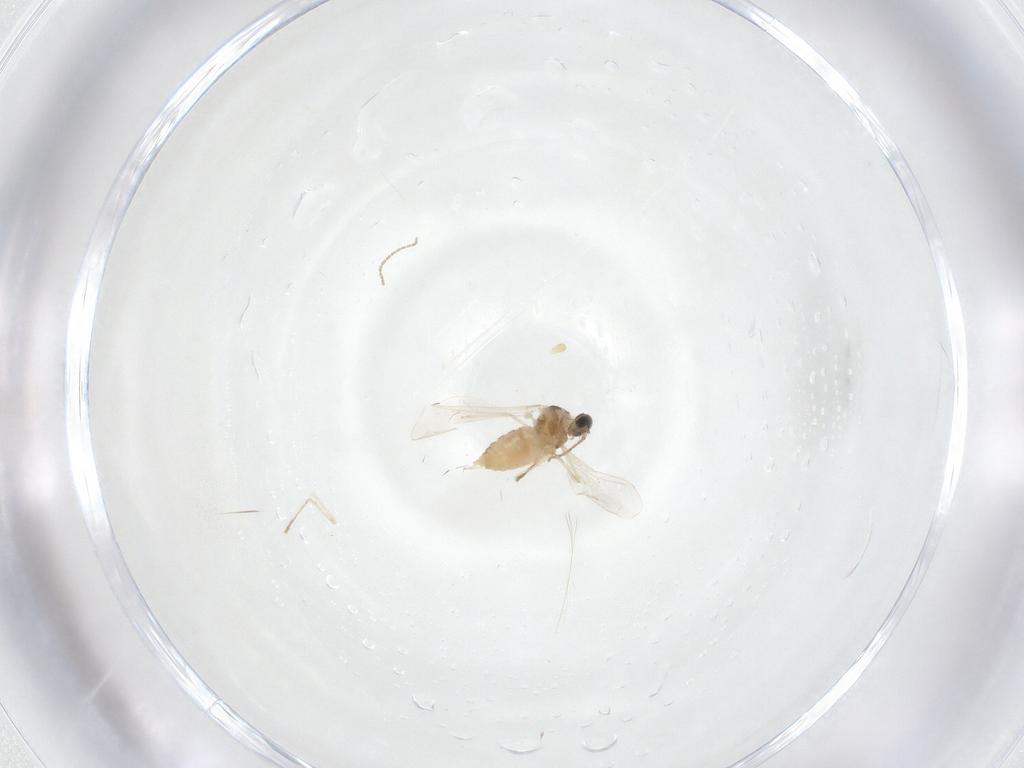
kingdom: Animalia
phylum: Arthropoda
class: Insecta
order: Diptera
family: Cecidomyiidae
